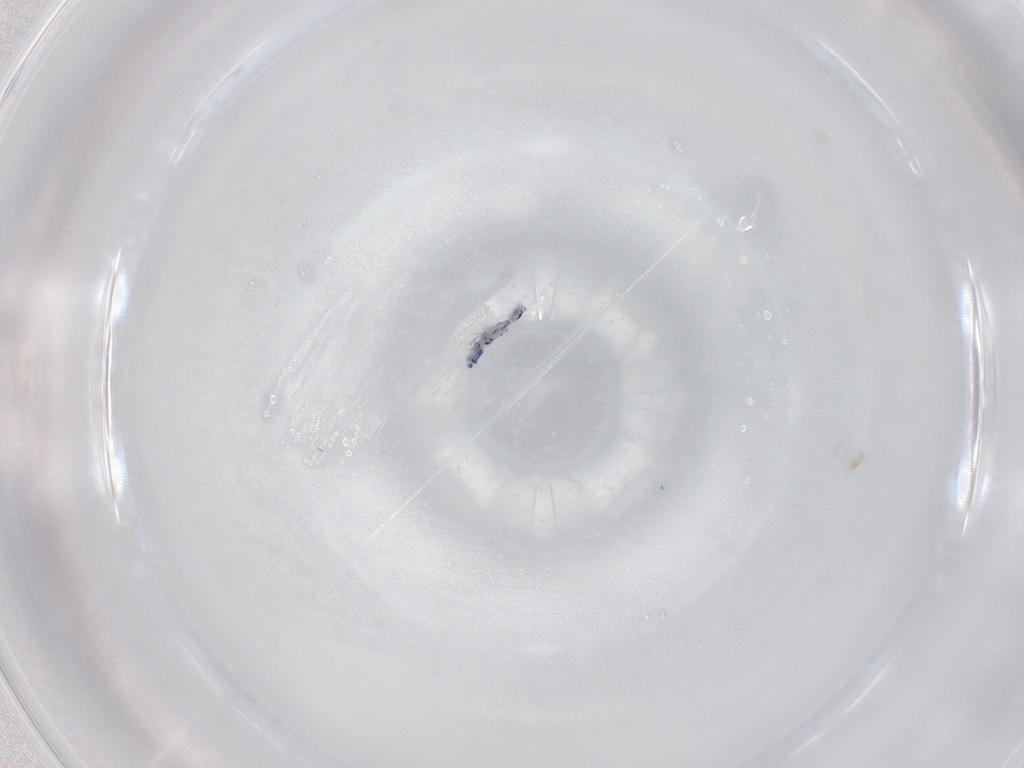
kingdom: Animalia
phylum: Arthropoda
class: Collembola
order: Entomobryomorpha
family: Entomobryidae
